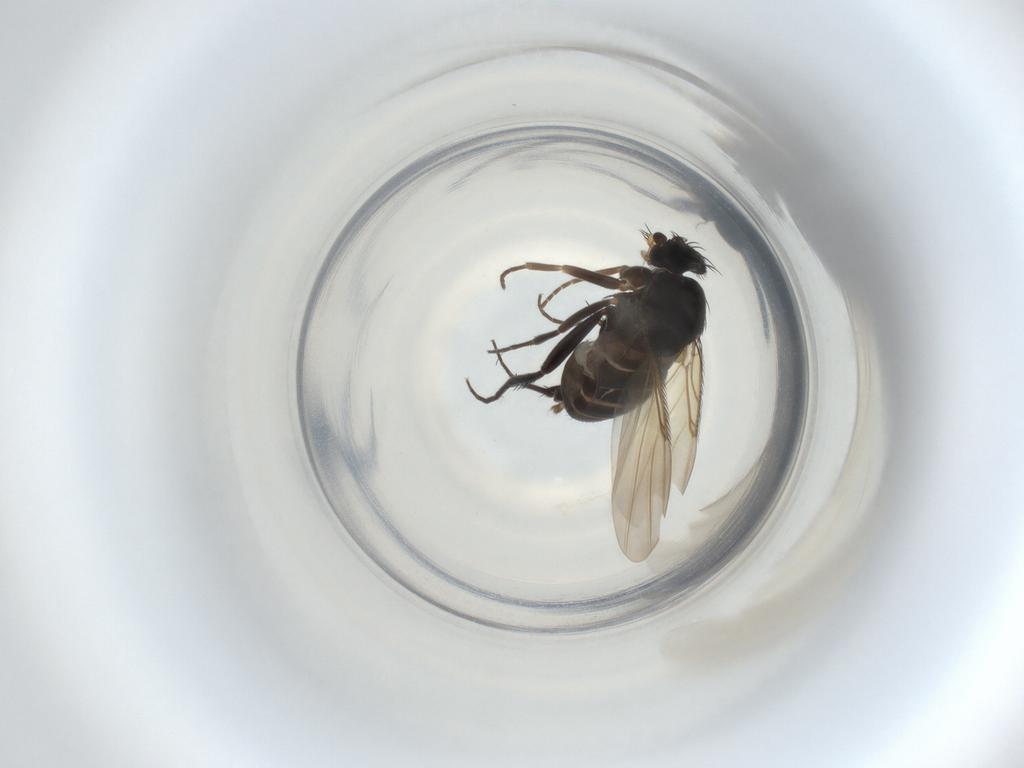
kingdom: Animalia
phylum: Arthropoda
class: Insecta
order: Diptera
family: Phoridae
